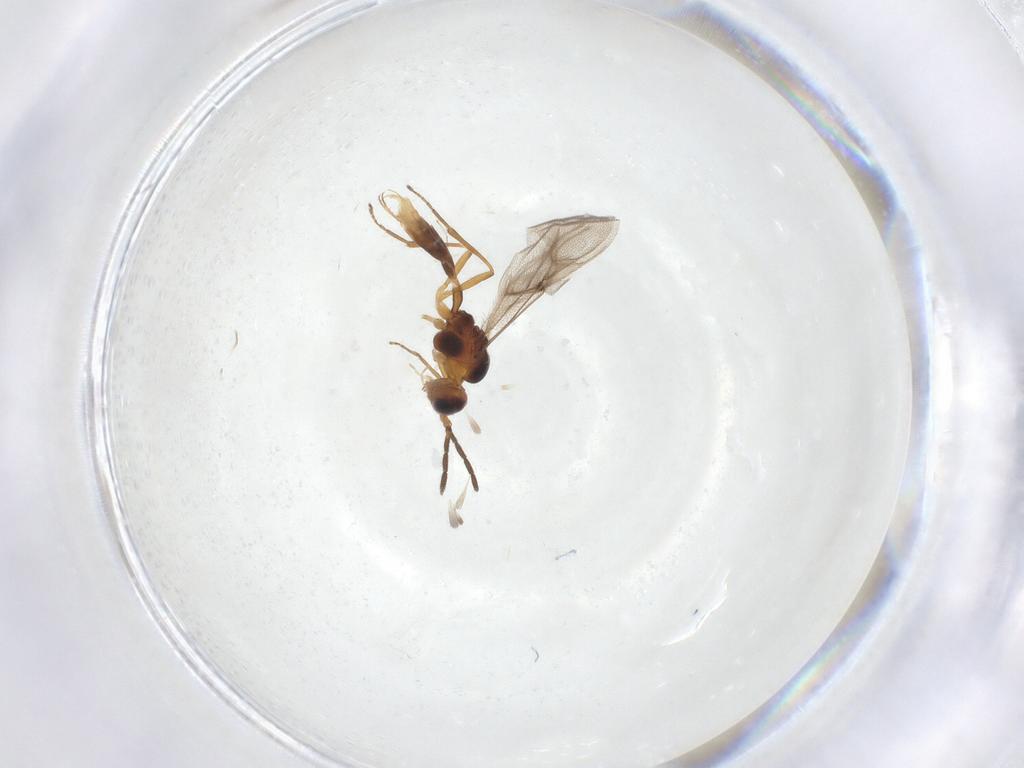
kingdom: Animalia
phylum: Arthropoda
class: Insecta
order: Hymenoptera
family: Braconidae
